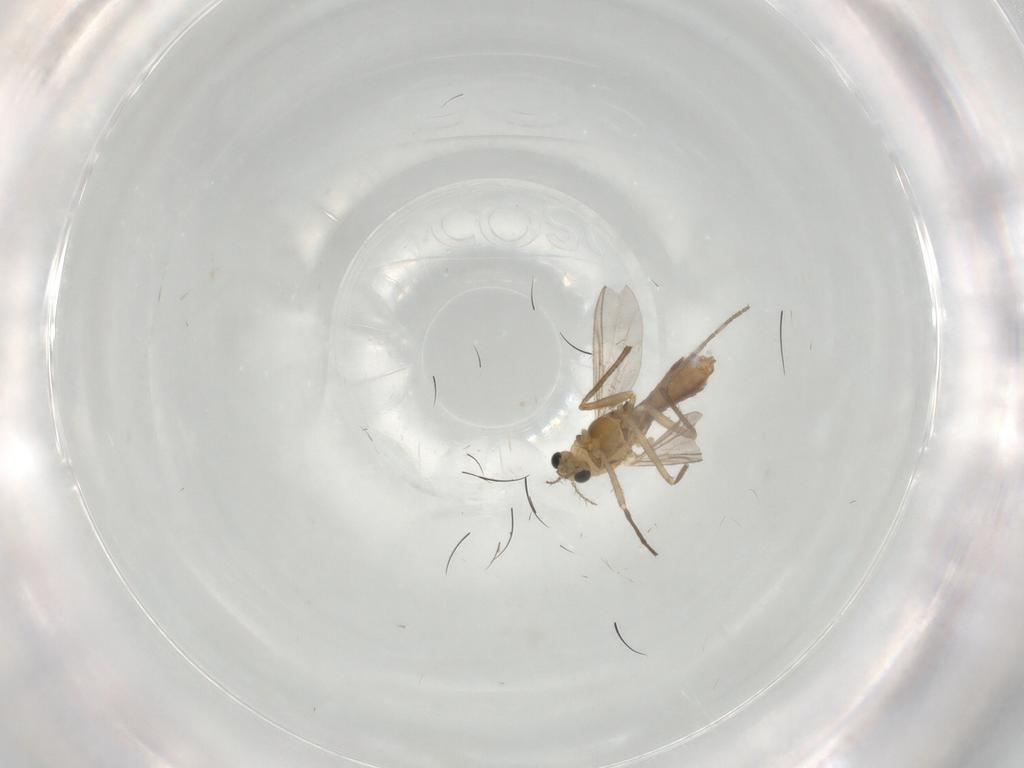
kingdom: Animalia
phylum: Arthropoda
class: Insecta
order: Diptera
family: Chironomidae
